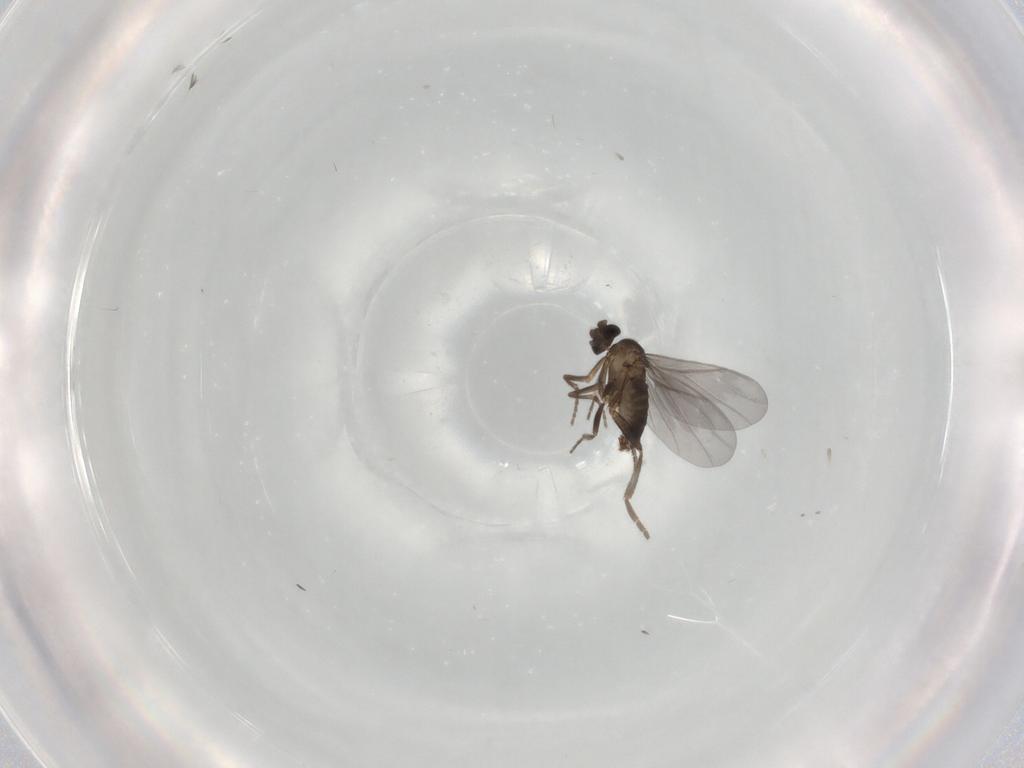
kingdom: Animalia
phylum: Arthropoda
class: Insecta
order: Diptera
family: Phoridae
